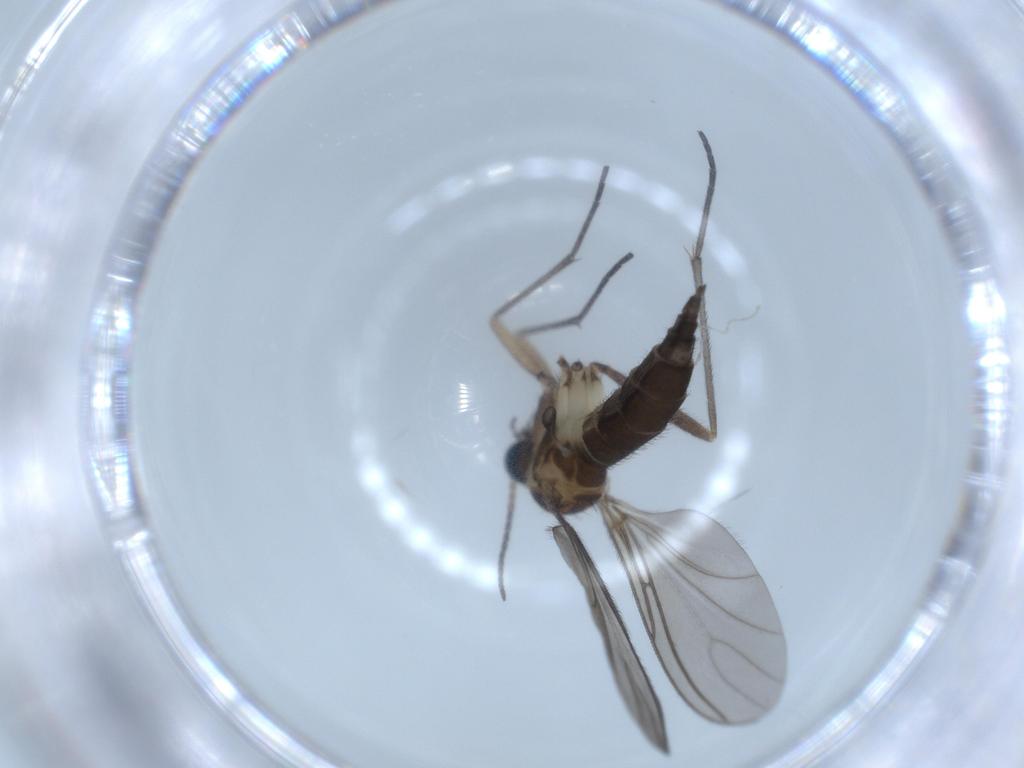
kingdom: Animalia
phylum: Arthropoda
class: Insecta
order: Diptera
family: Sciaridae
